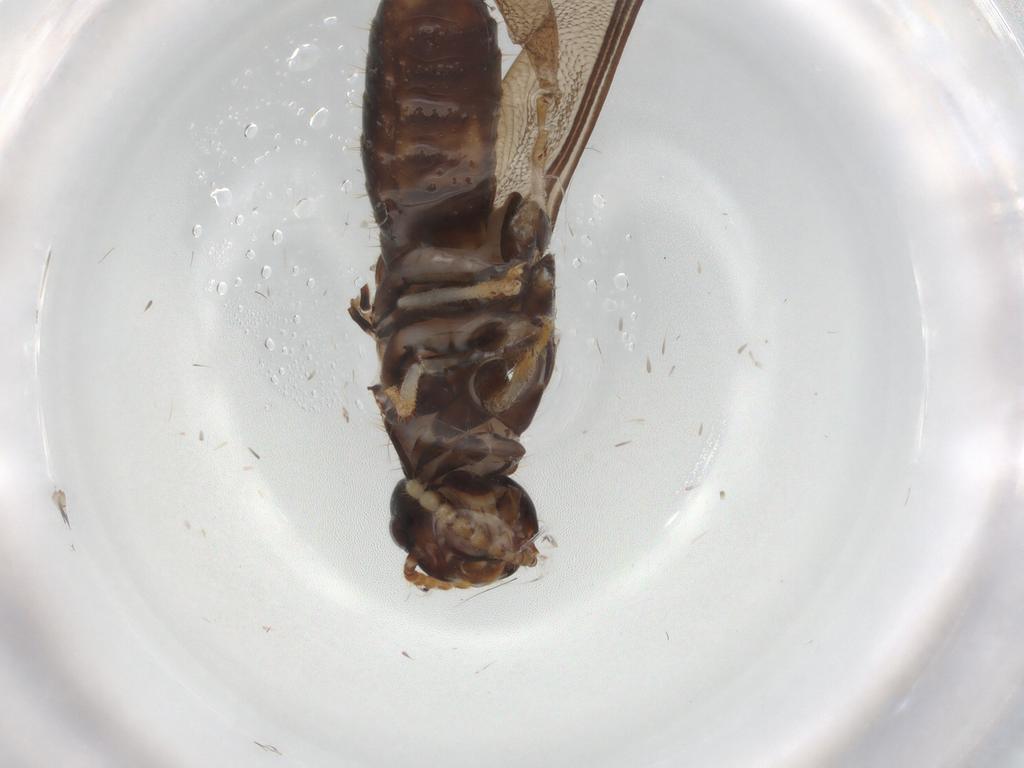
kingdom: Animalia
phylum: Arthropoda
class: Insecta
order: Blattodea
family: Kalotermitidae
